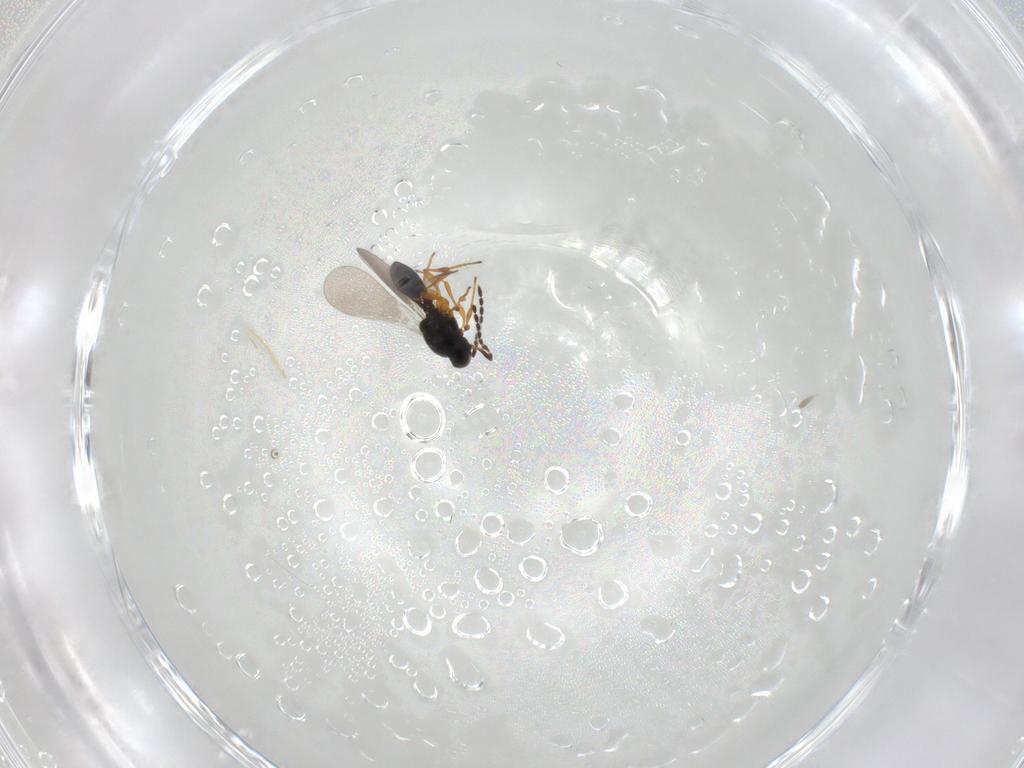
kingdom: Animalia
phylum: Arthropoda
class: Insecta
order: Hymenoptera
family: Platygastridae
